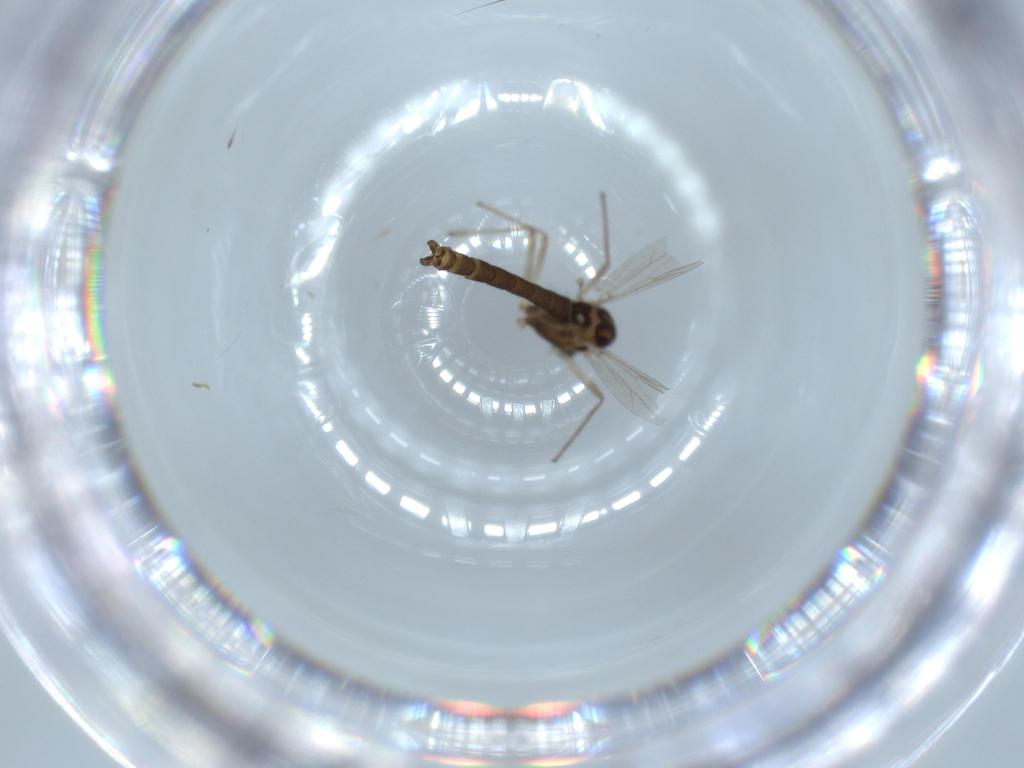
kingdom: Animalia
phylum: Arthropoda
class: Insecta
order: Diptera
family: Chironomidae
